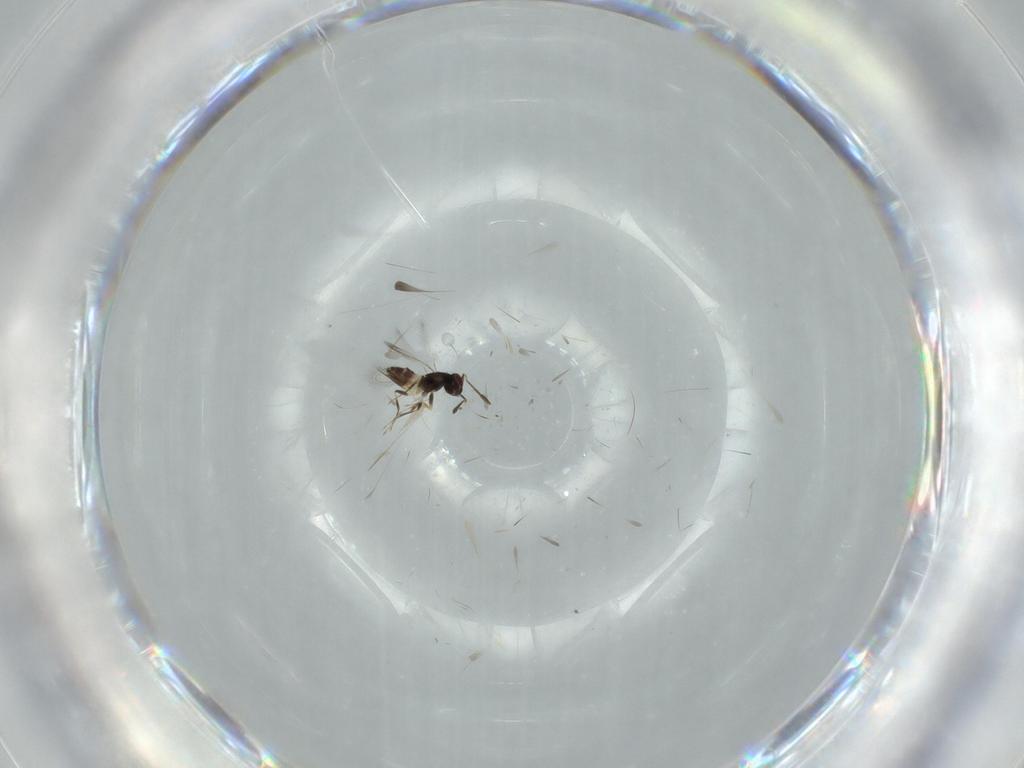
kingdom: Animalia
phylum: Arthropoda
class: Insecta
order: Hymenoptera
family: Mymaridae
